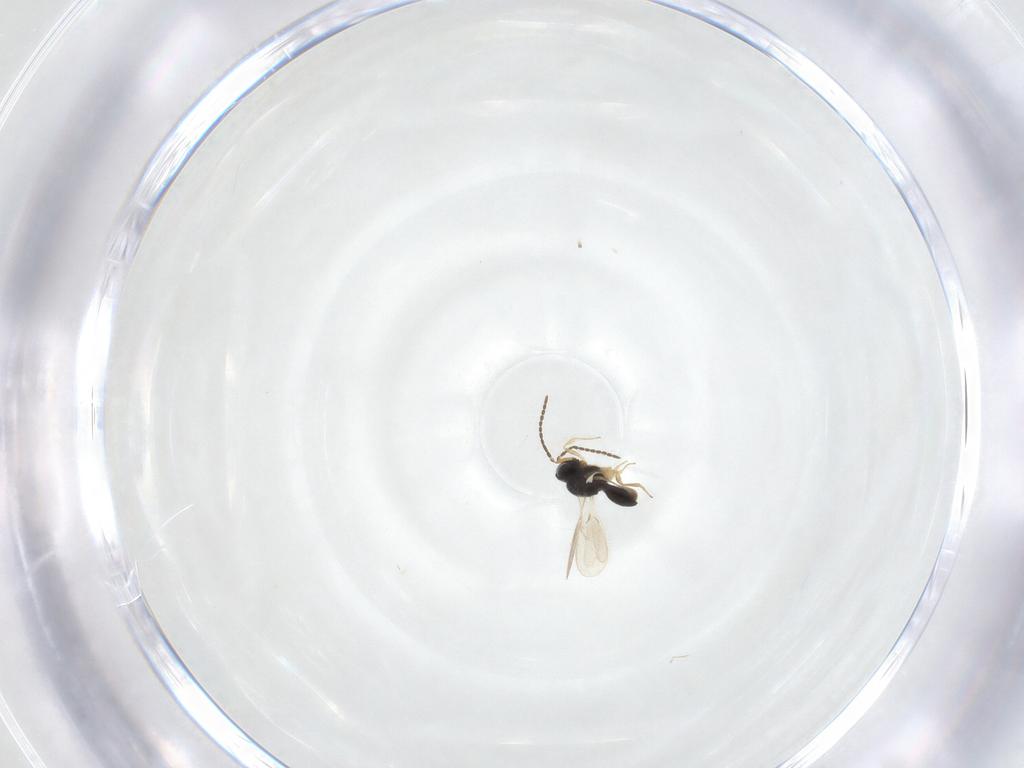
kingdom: Animalia
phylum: Arthropoda
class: Insecta
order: Hymenoptera
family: Scelionidae
